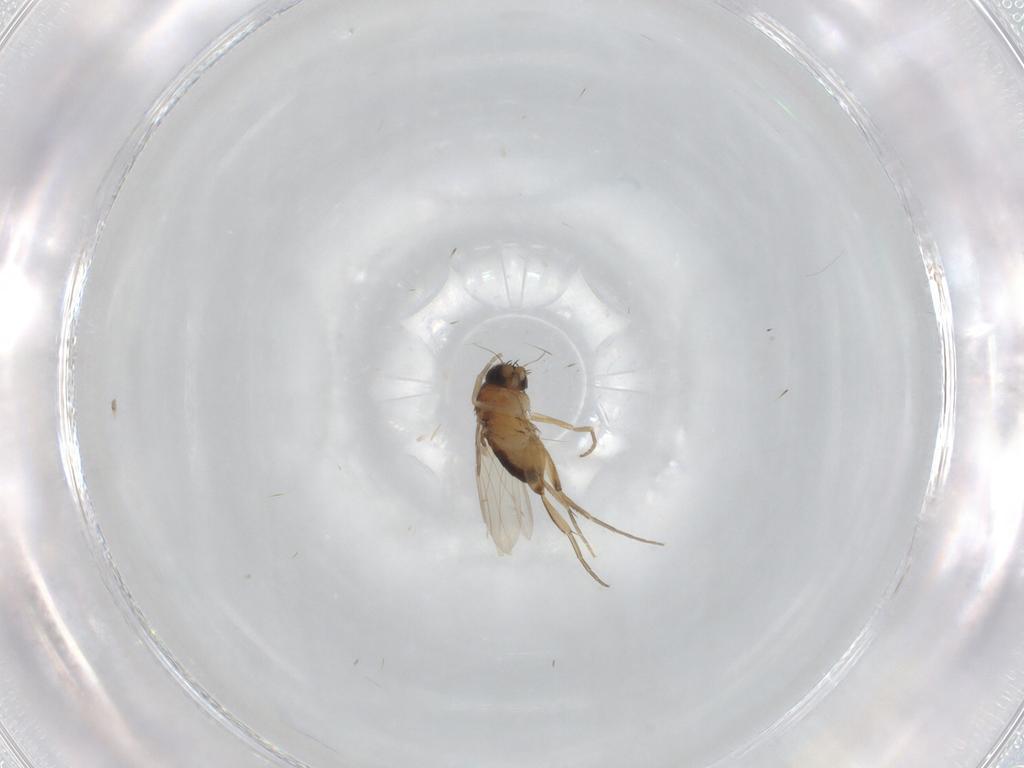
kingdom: Animalia
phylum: Arthropoda
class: Insecta
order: Diptera
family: Phoridae
